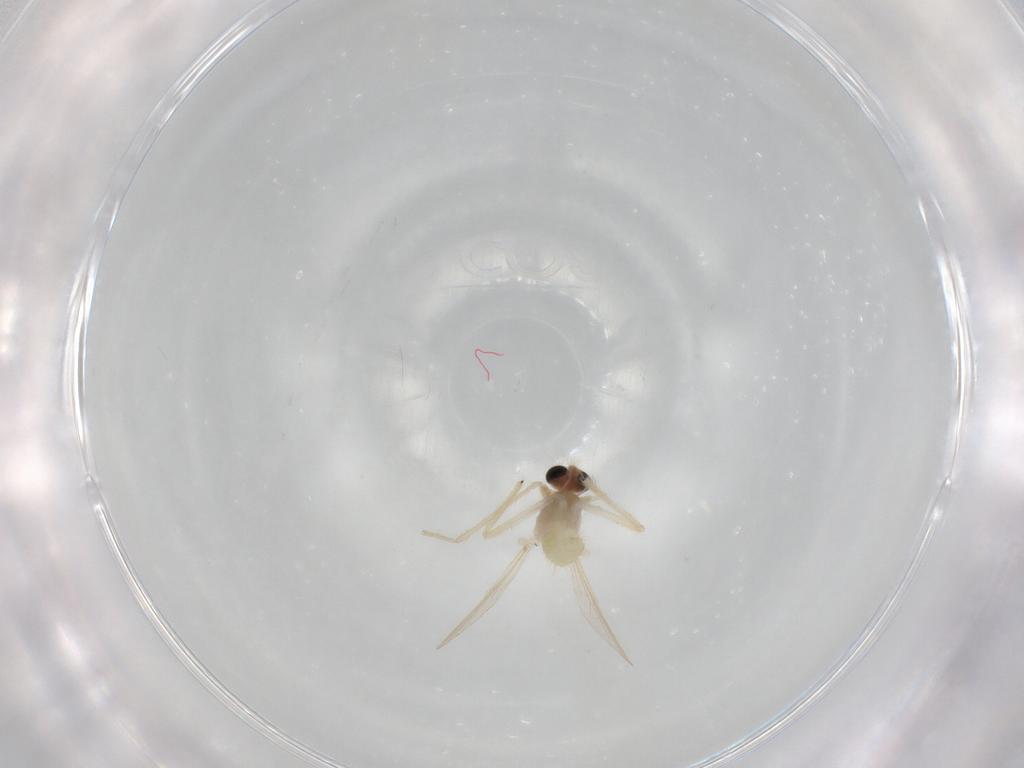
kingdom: Animalia
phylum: Arthropoda
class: Insecta
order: Diptera
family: Chironomidae
